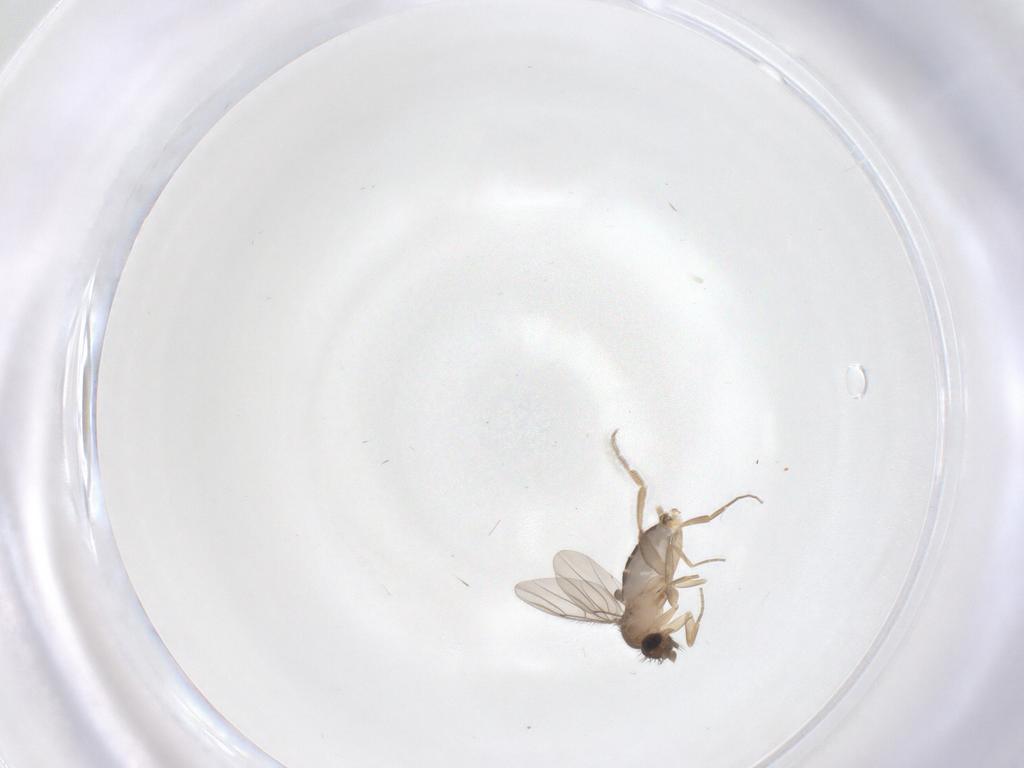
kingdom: Animalia
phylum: Arthropoda
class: Insecta
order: Diptera
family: Phoridae
